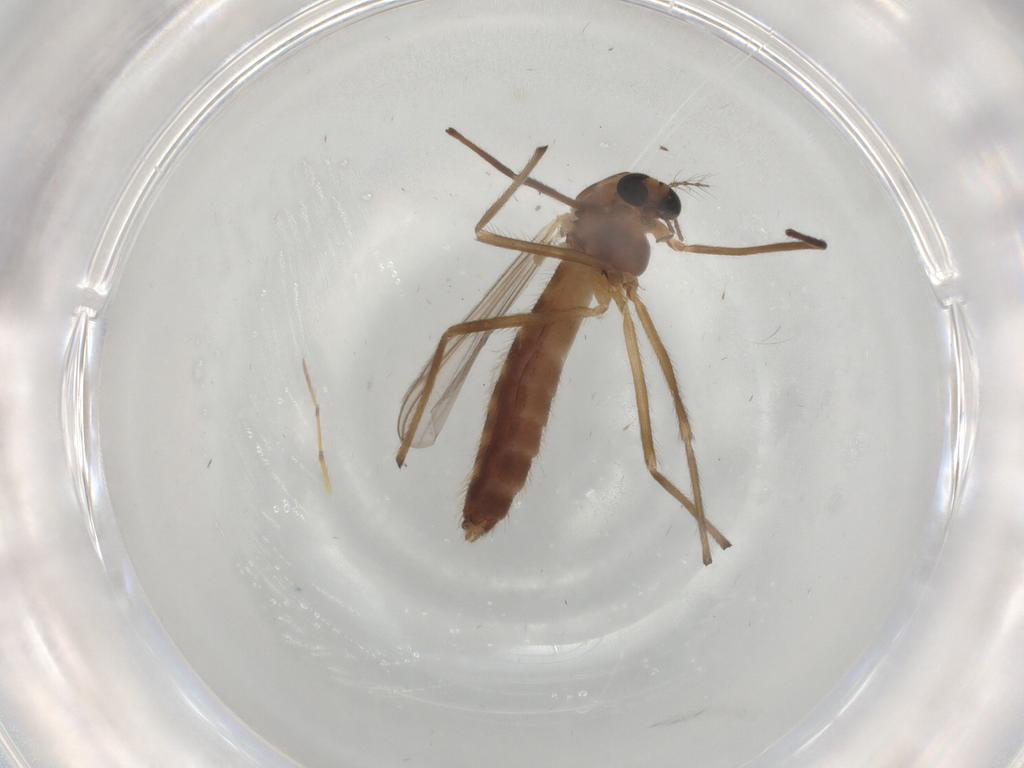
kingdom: Animalia
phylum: Arthropoda
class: Insecta
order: Diptera
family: Chironomidae
